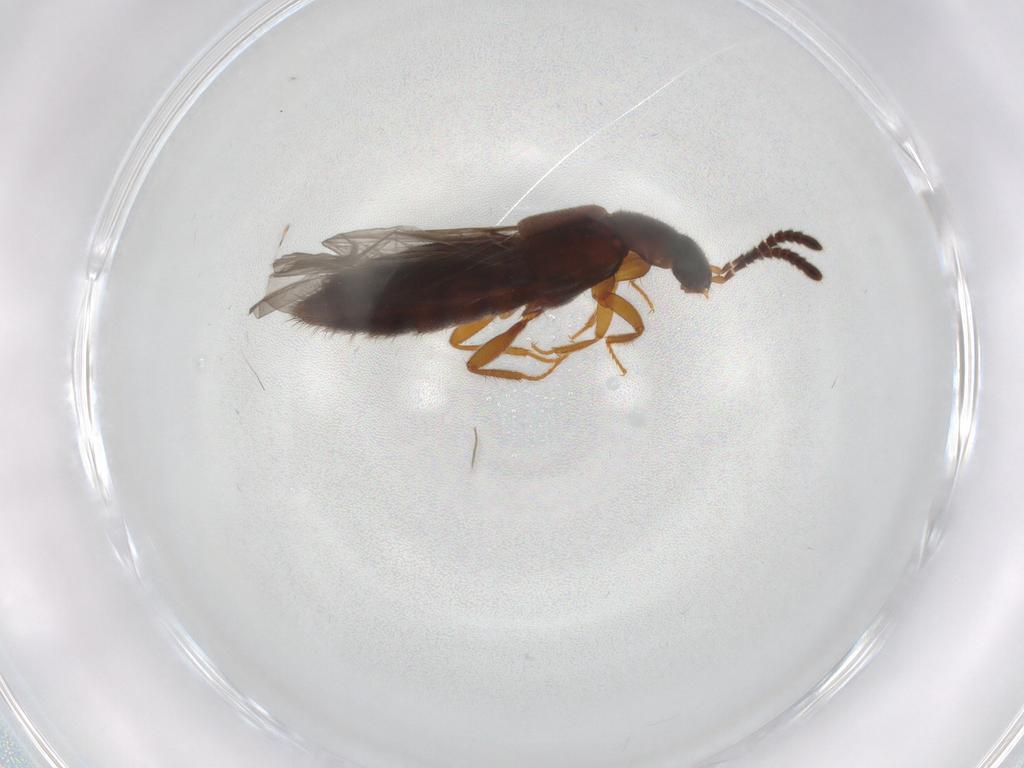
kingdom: Animalia
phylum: Arthropoda
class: Insecta
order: Coleoptera
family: Staphylinidae
